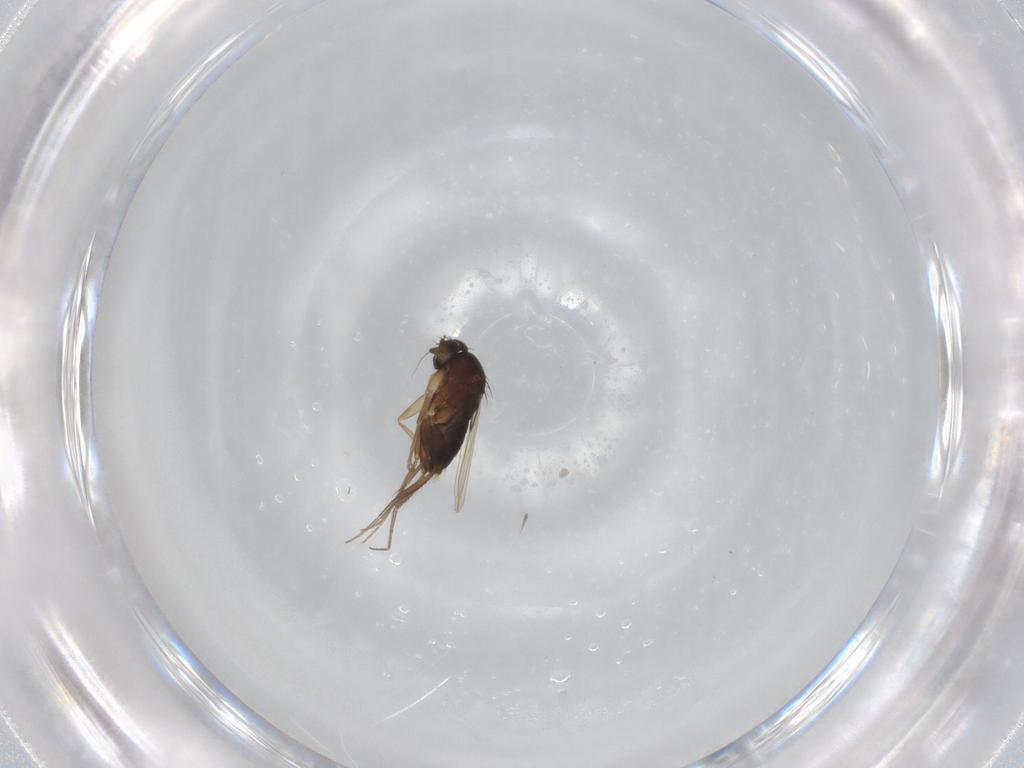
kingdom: Animalia
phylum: Arthropoda
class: Insecta
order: Diptera
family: Phoridae
